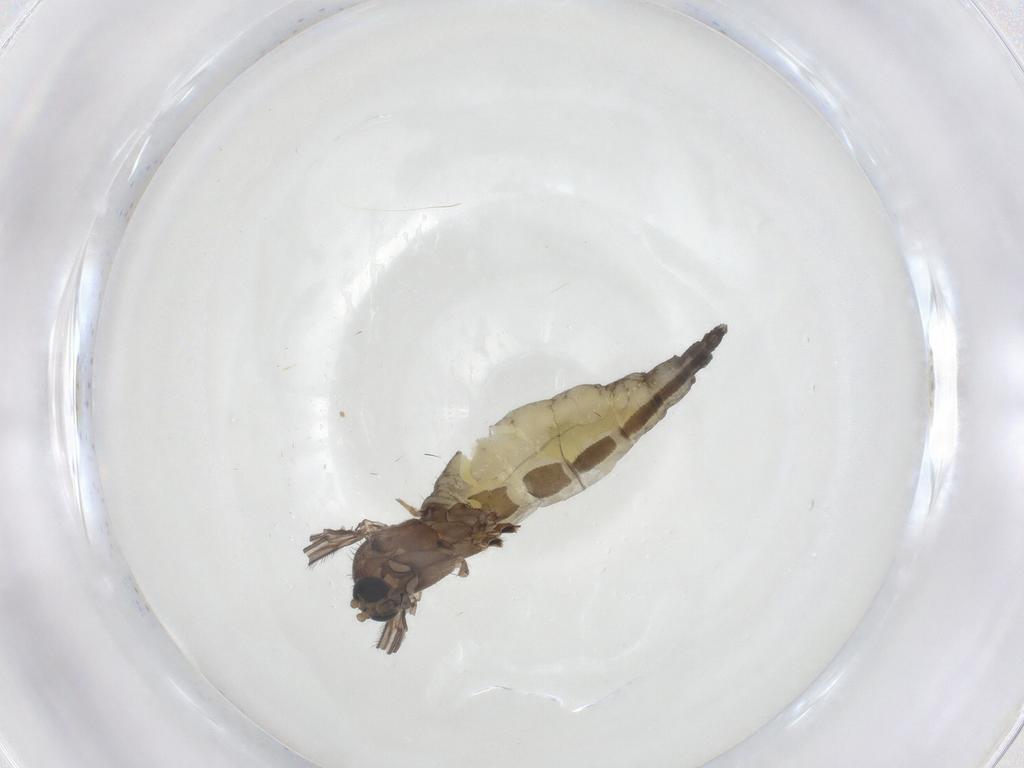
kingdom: Animalia
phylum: Arthropoda
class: Insecta
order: Diptera
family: Sciaridae
